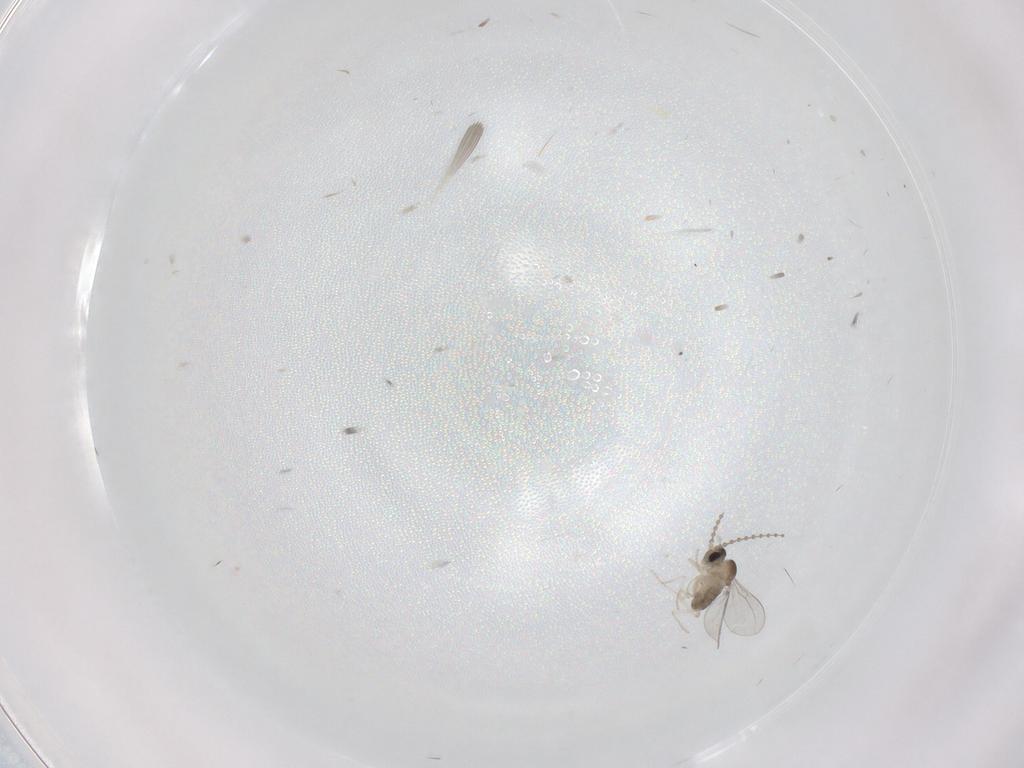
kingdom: Animalia
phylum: Arthropoda
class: Insecta
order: Diptera
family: Cecidomyiidae
